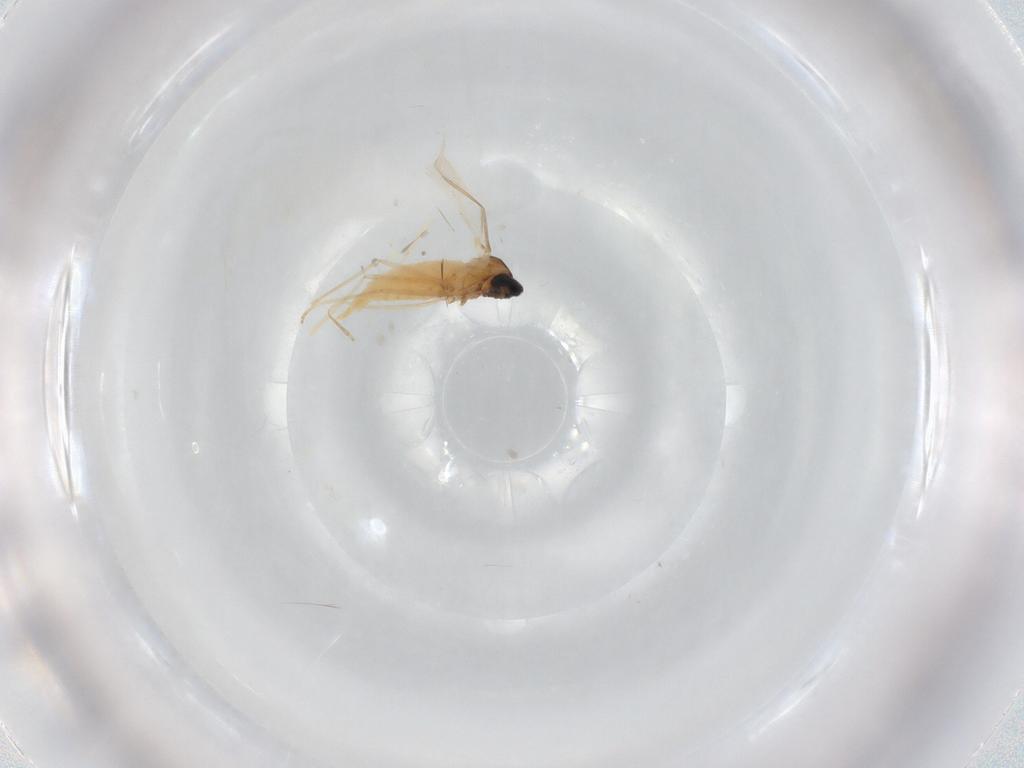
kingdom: Animalia
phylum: Arthropoda
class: Insecta
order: Diptera
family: Cecidomyiidae
